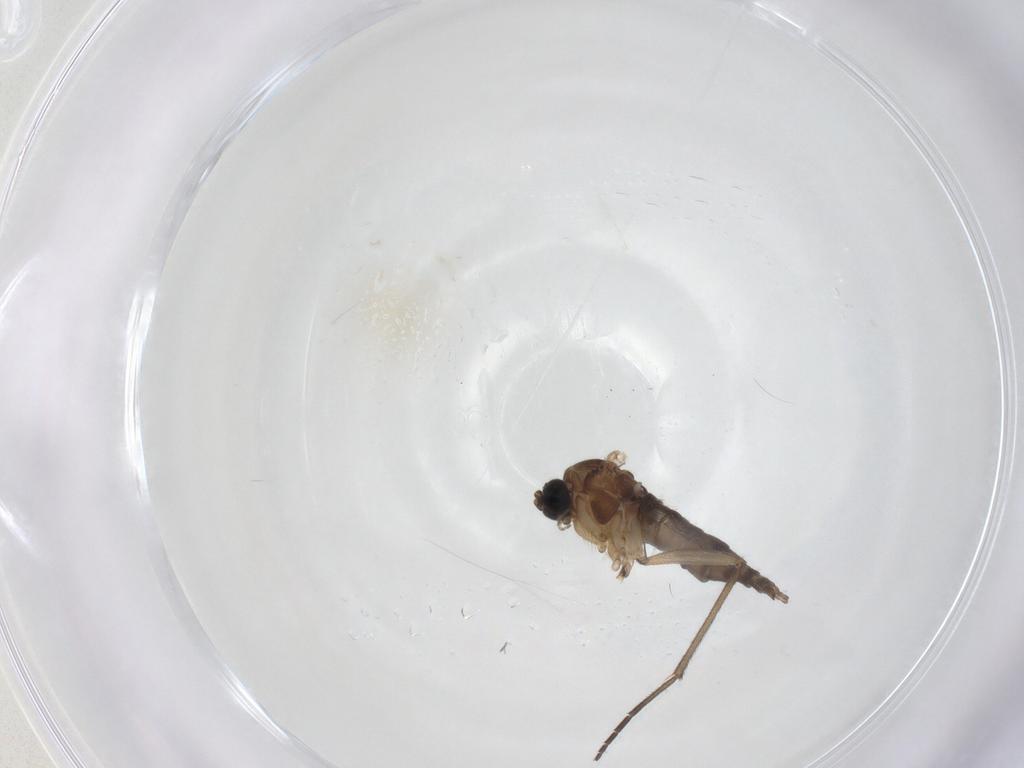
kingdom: Animalia
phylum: Arthropoda
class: Insecta
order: Diptera
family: Sciaridae
